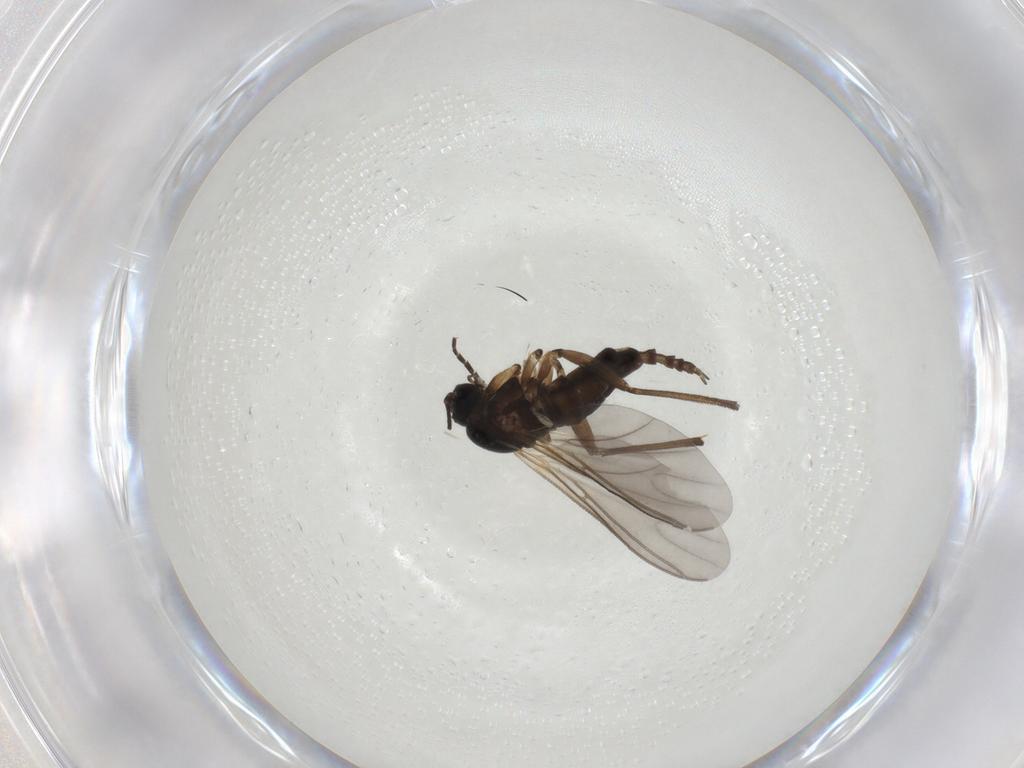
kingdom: Animalia
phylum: Arthropoda
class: Insecta
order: Diptera
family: Sciaridae
